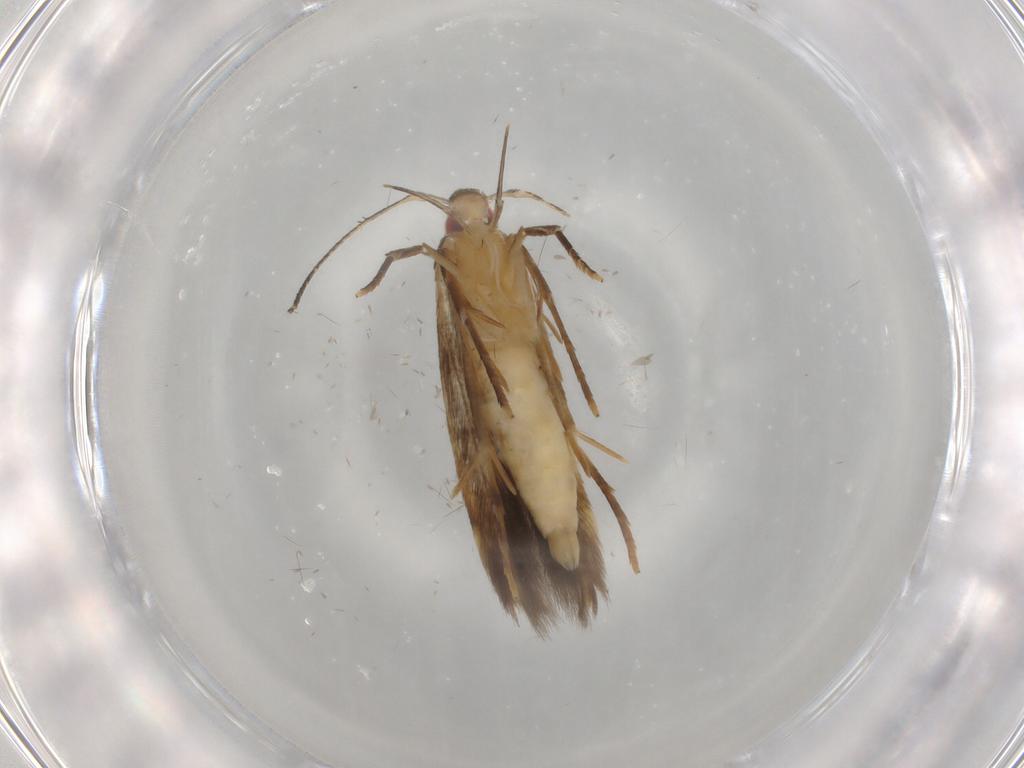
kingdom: Animalia
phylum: Arthropoda
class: Insecta
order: Lepidoptera
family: Gelechiidae
